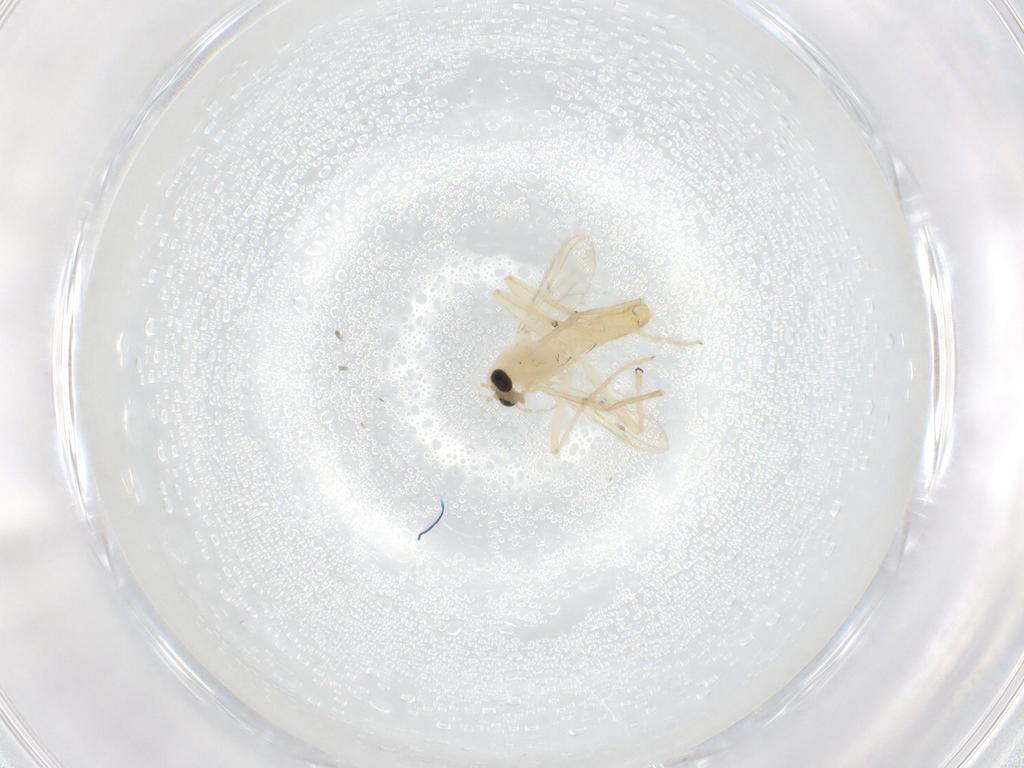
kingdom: Animalia
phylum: Arthropoda
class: Insecta
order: Diptera
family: Chironomidae
